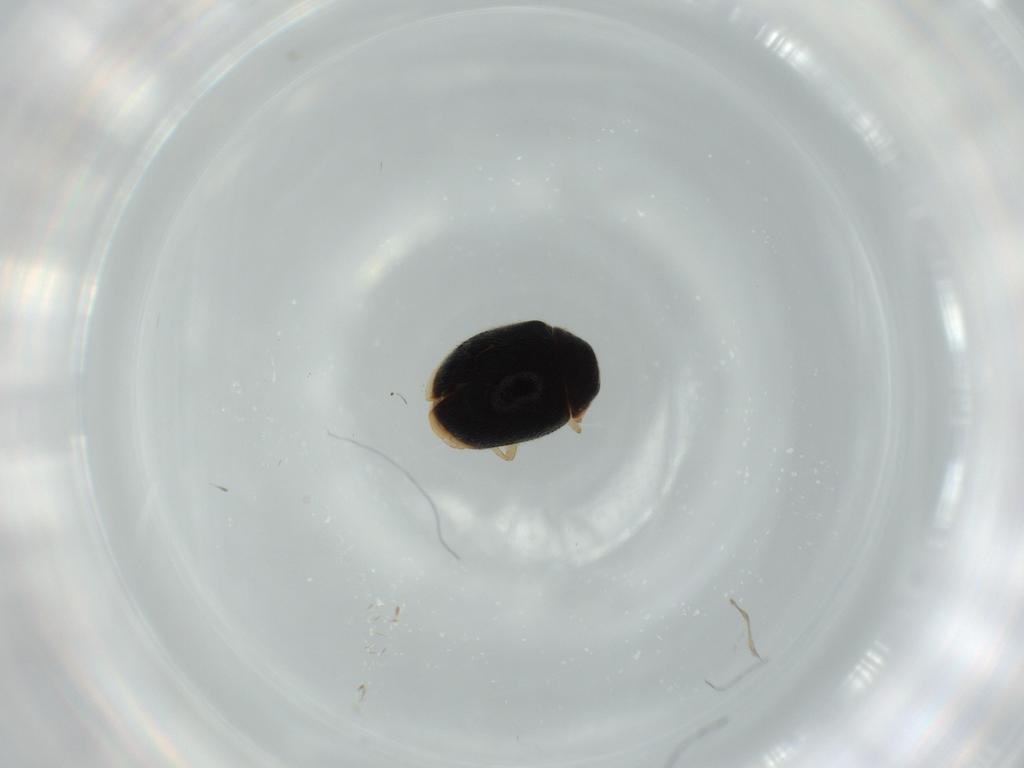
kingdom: Animalia
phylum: Arthropoda
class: Insecta
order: Coleoptera
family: Coccinellidae
